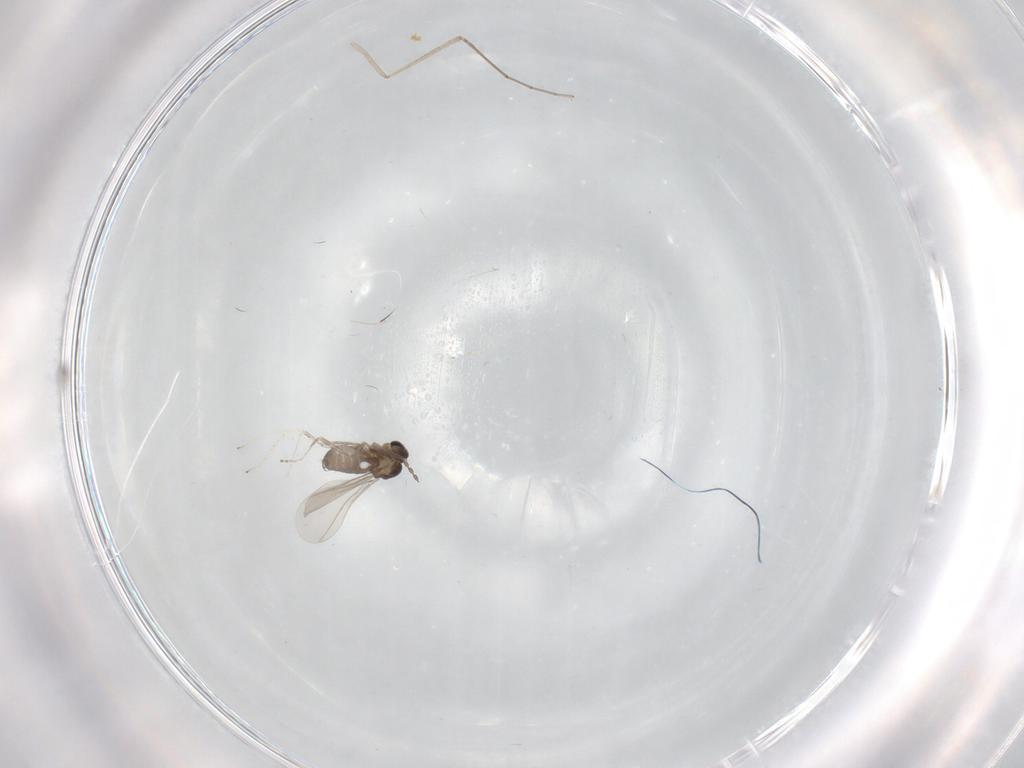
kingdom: Animalia
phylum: Arthropoda
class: Insecta
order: Diptera
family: Cecidomyiidae
